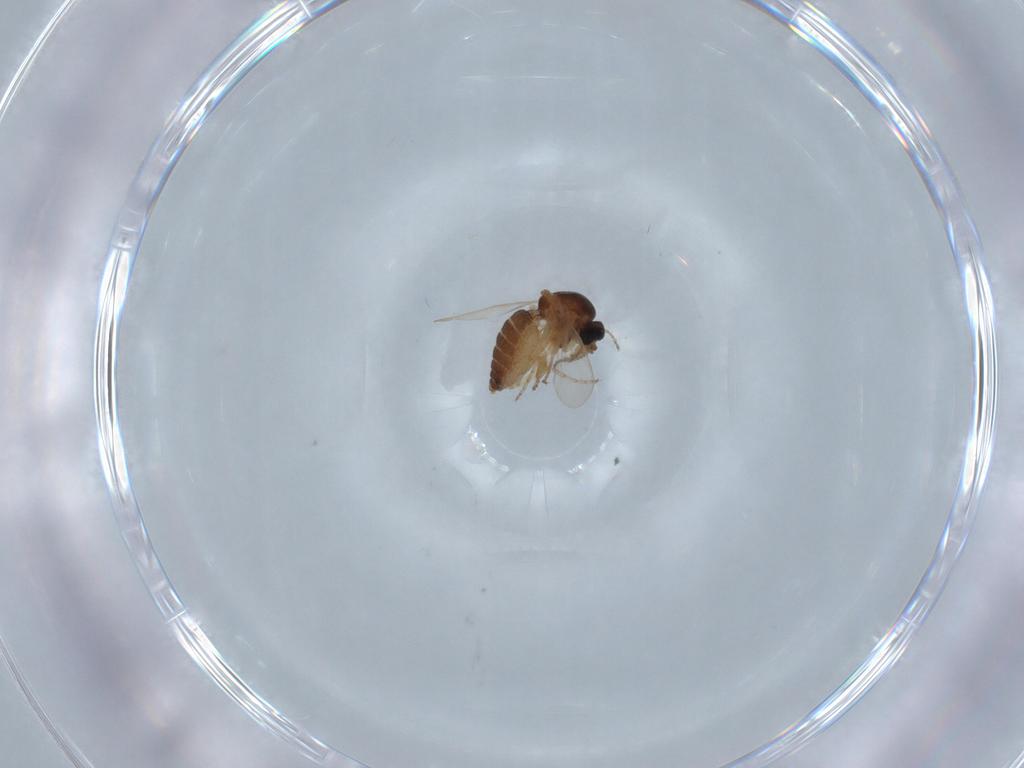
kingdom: Animalia
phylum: Arthropoda
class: Insecta
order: Diptera
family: Ceratopogonidae
